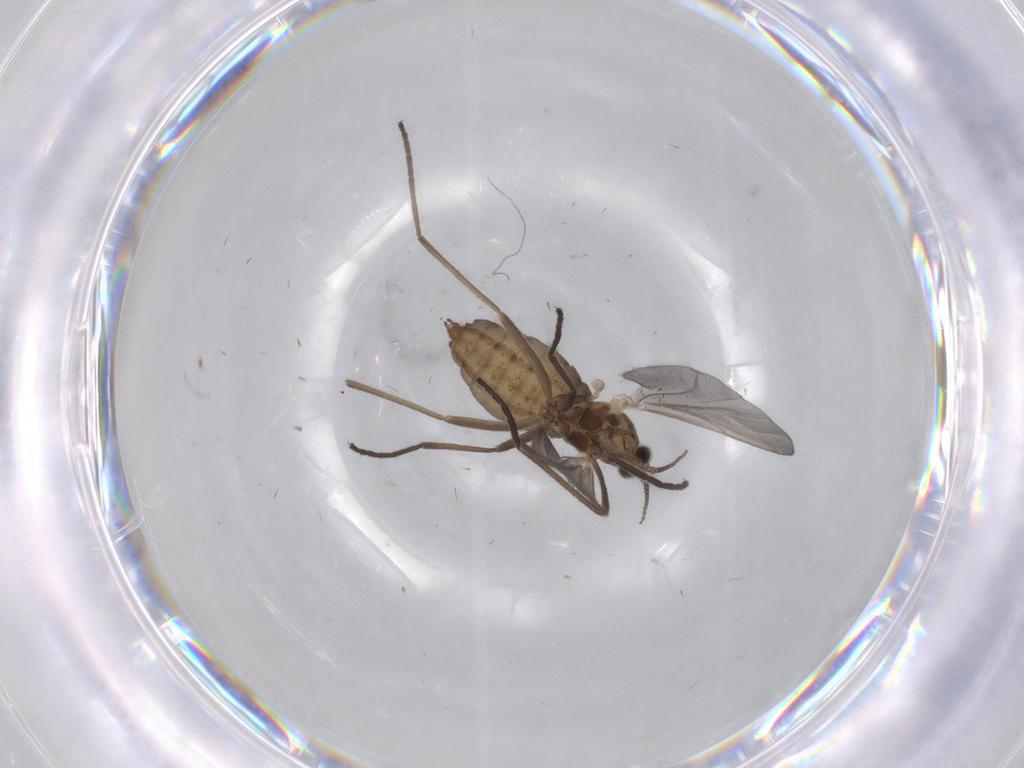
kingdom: Animalia
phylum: Arthropoda
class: Insecta
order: Diptera
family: Cecidomyiidae
